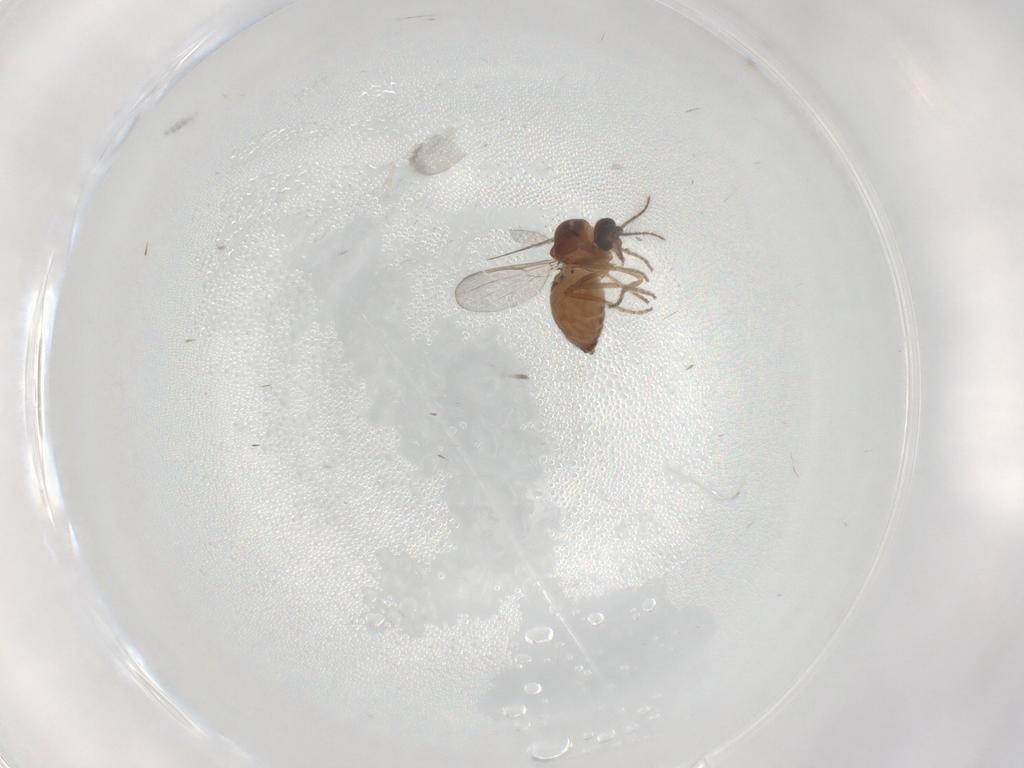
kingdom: Animalia
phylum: Arthropoda
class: Insecta
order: Diptera
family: Ceratopogonidae
